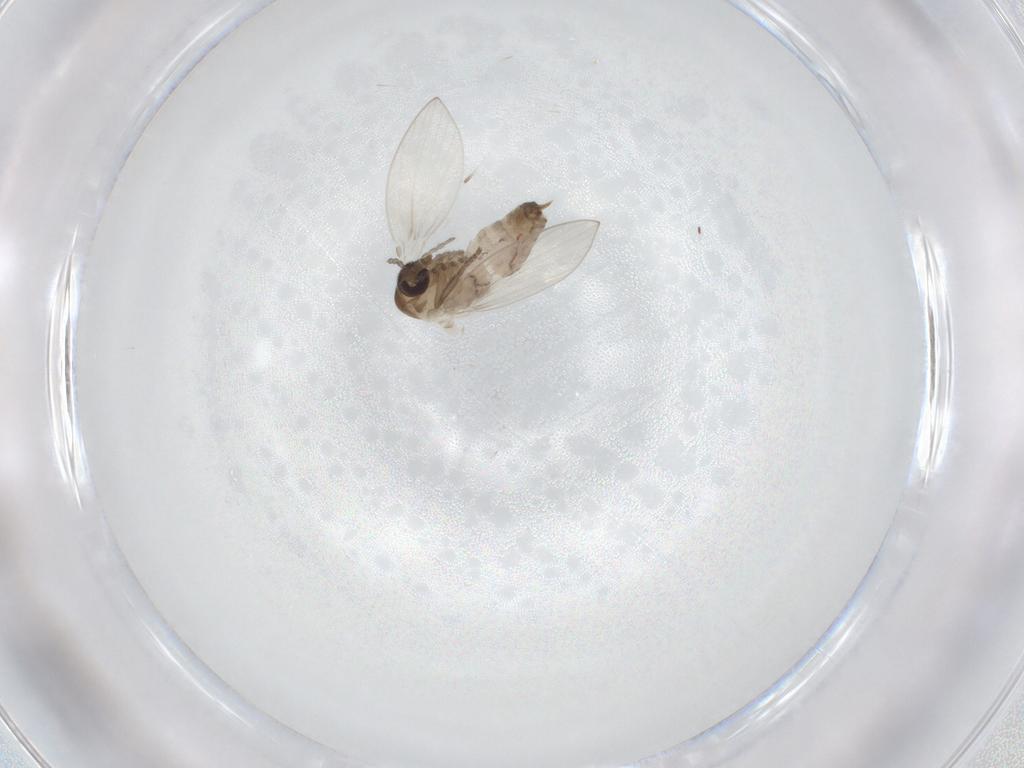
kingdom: Animalia
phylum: Arthropoda
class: Insecta
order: Diptera
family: Psychodidae
